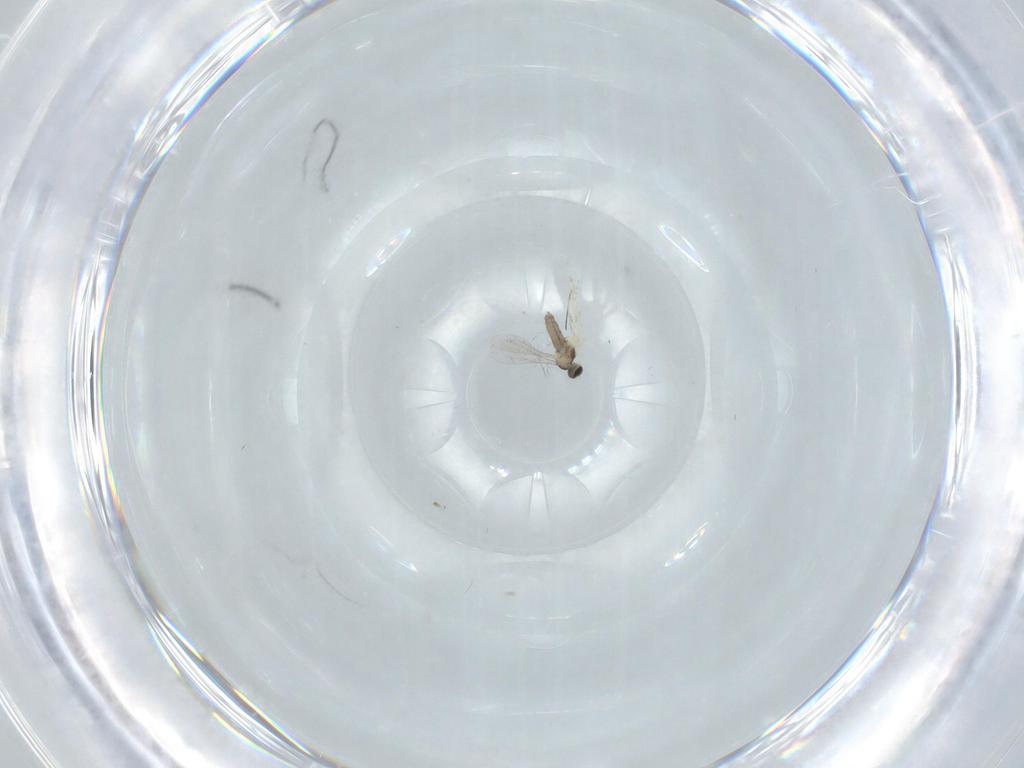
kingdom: Animalia
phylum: Arthropoda
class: Insecta
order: Diptera
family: Cecidomyiidae
